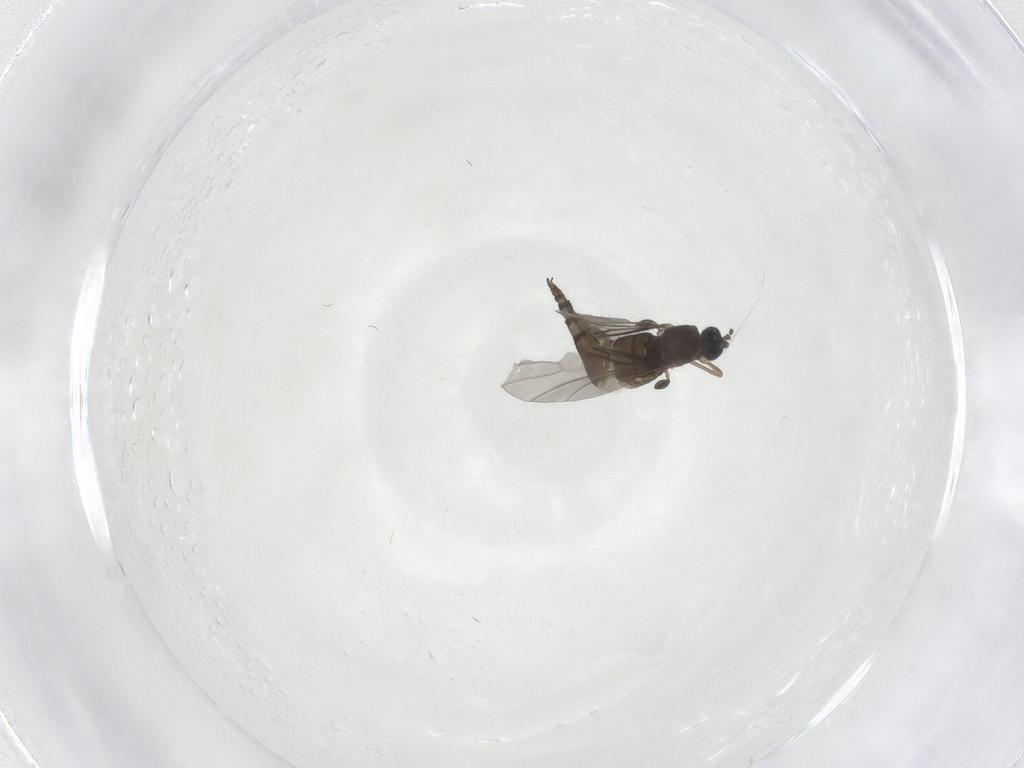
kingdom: Animalia
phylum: Arthropoda
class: Insecta
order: Diptera
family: Sciaridae
